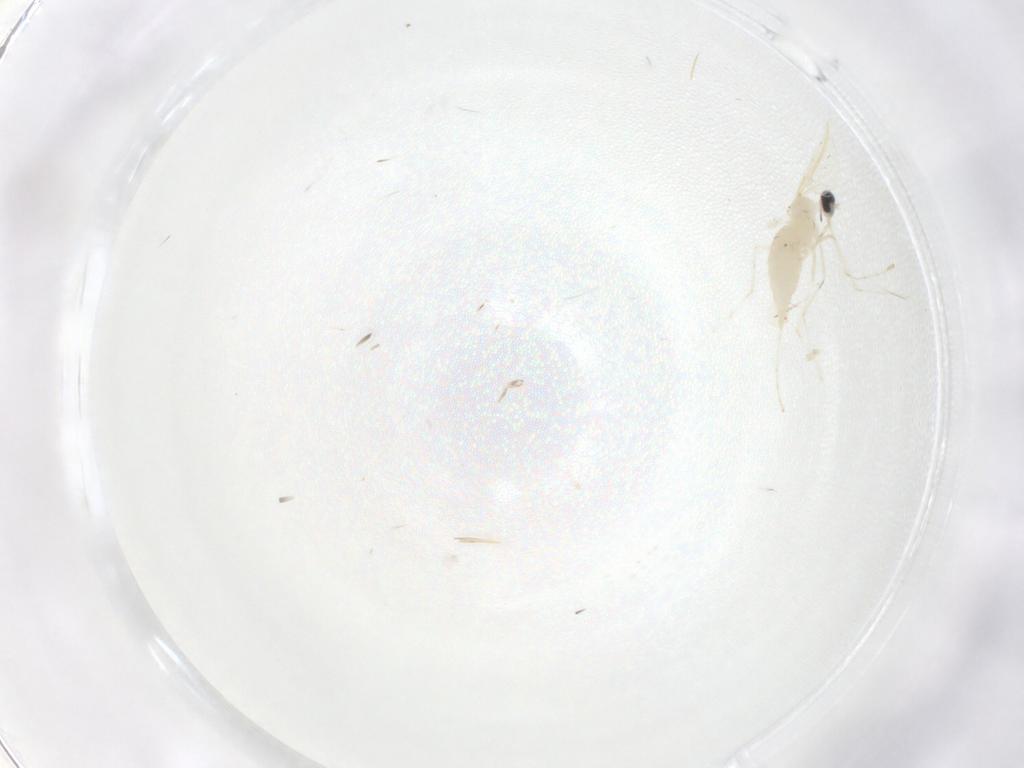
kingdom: Animalia
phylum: Arthropoda
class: Insecta
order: Diptera
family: Cecidomyiidae
